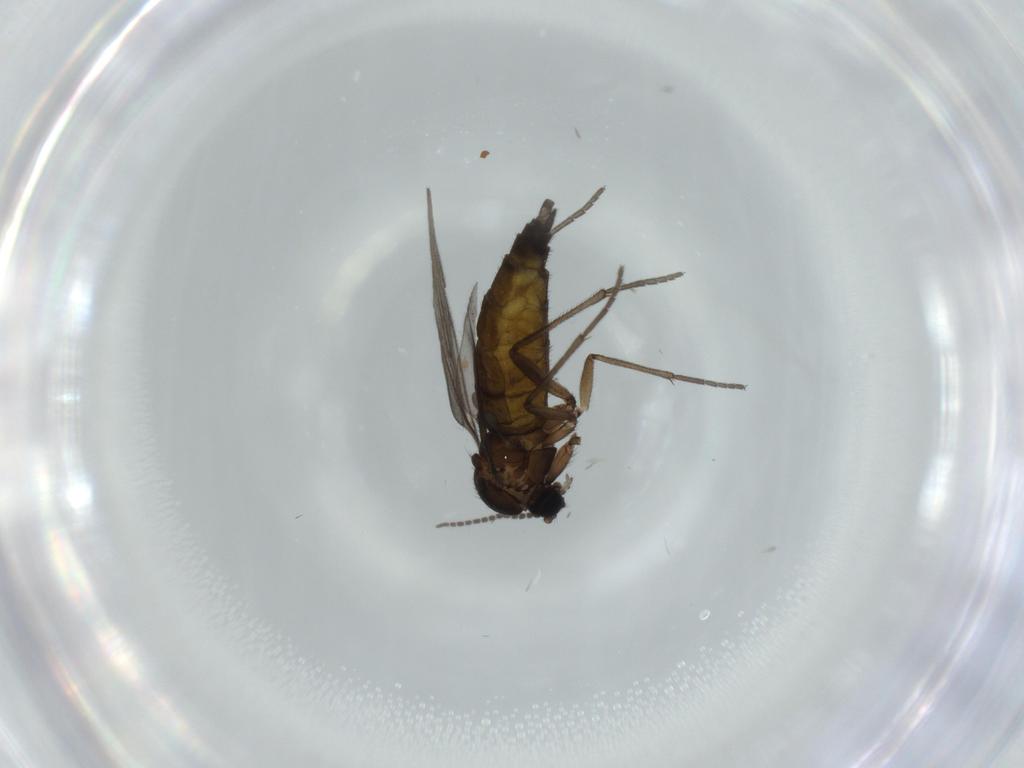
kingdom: Animalia
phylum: Arthropoda
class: Insecta
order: Diptera
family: Sciaridae
